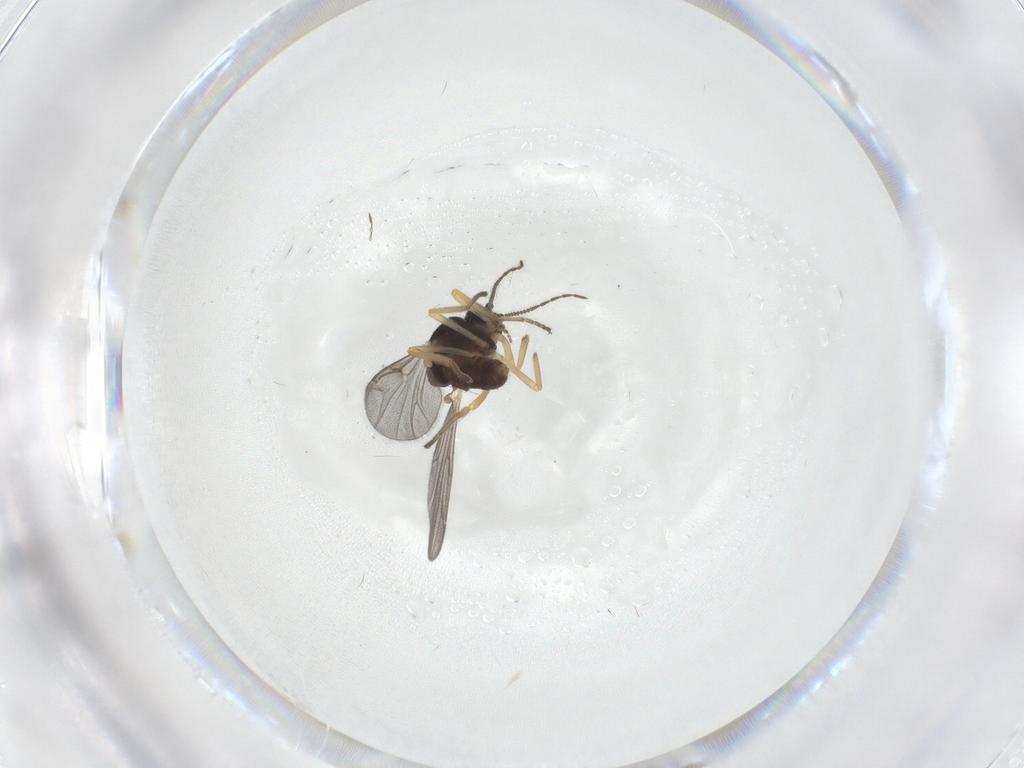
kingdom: Animalia
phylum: Arthropoda
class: Insecta
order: Diptera
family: Ceratopogonidae
